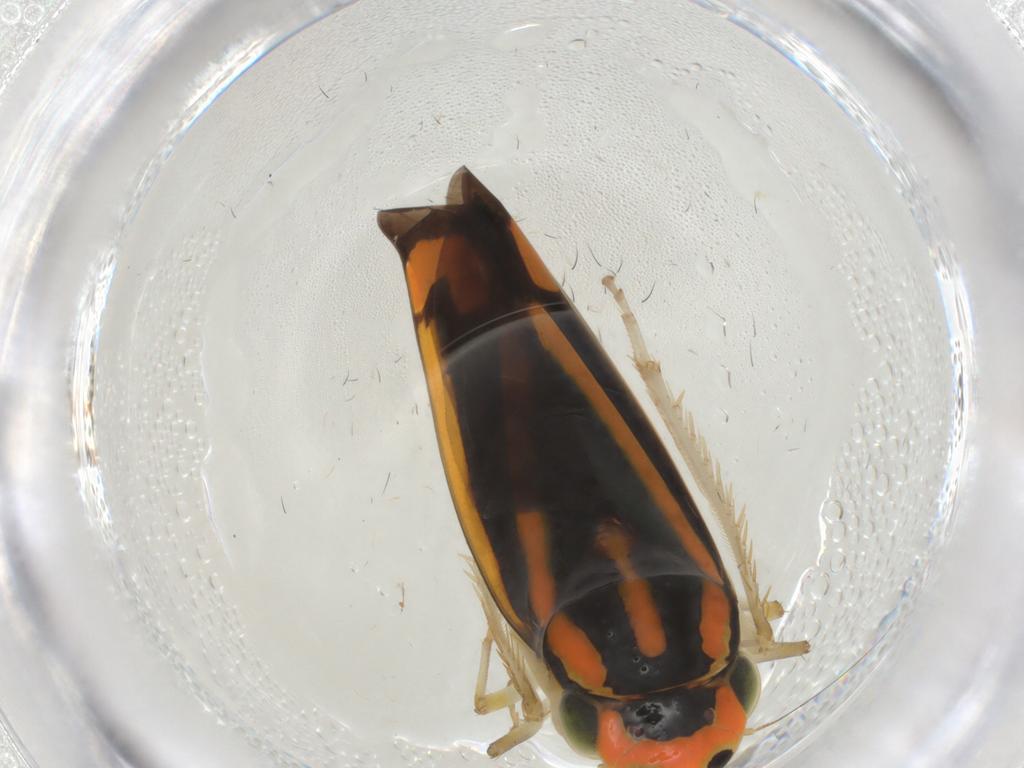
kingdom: Animalia
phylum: Arthropoda
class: Insecta
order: Hemiptera
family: Cicadellidae
